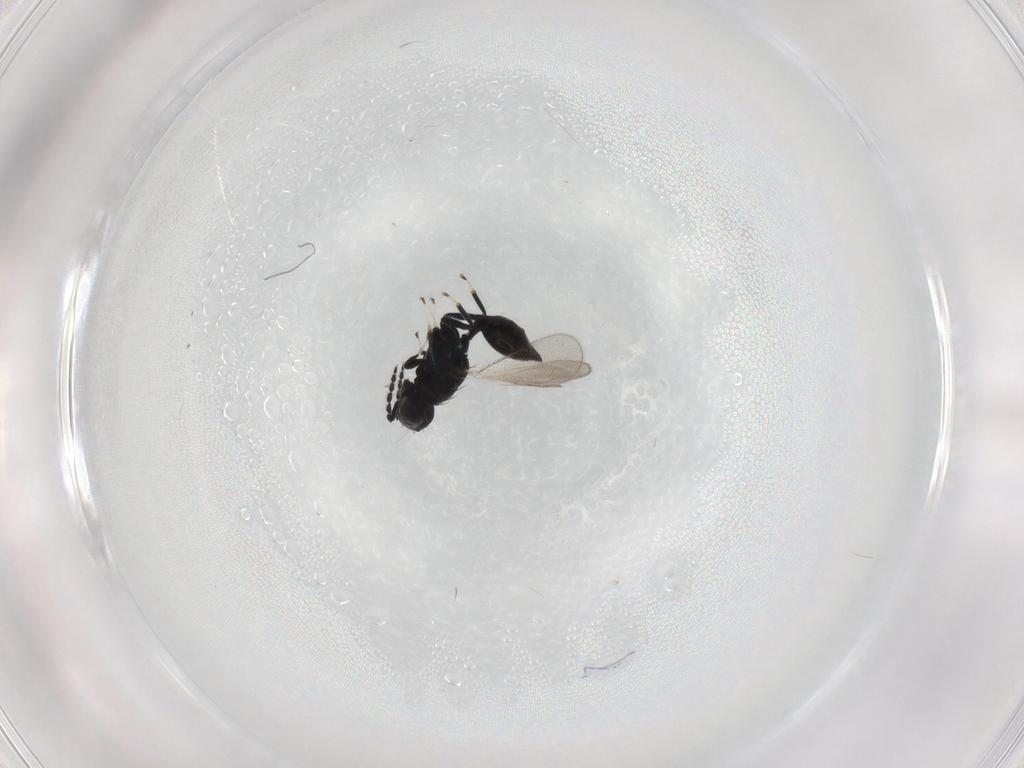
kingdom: Animalia
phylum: Arthropoda
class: Insecta
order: Hymenoptera
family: Eulophidae
